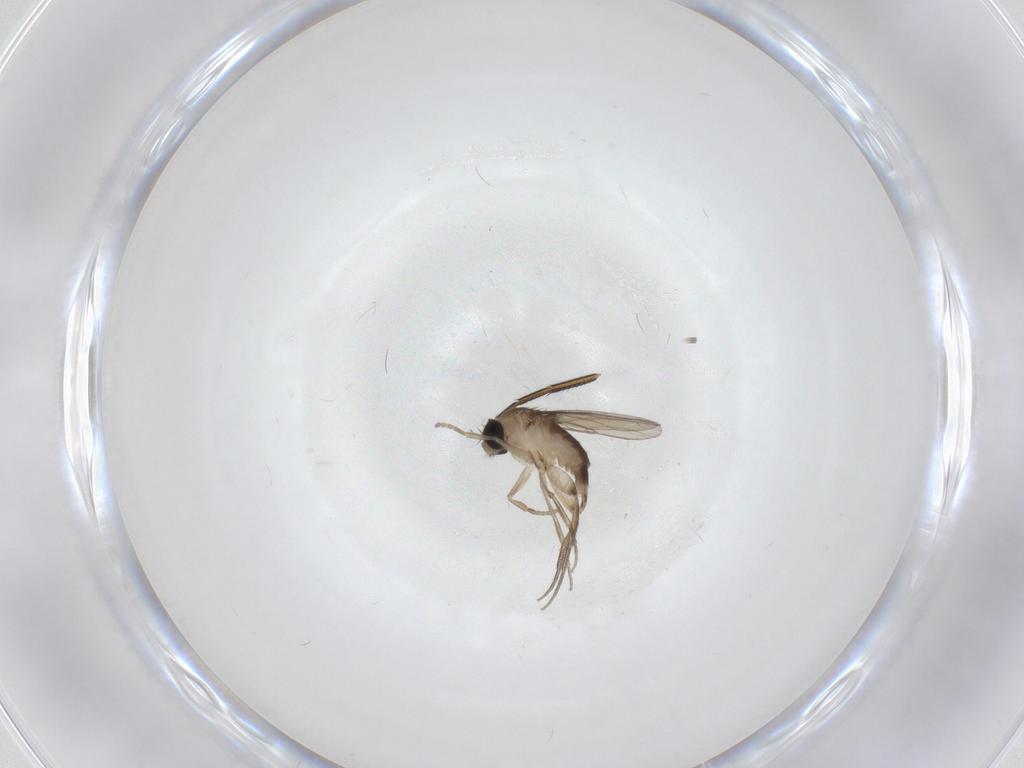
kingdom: Animalia
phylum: Arthropoda
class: Insecta
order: Diptera
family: Phoridae
